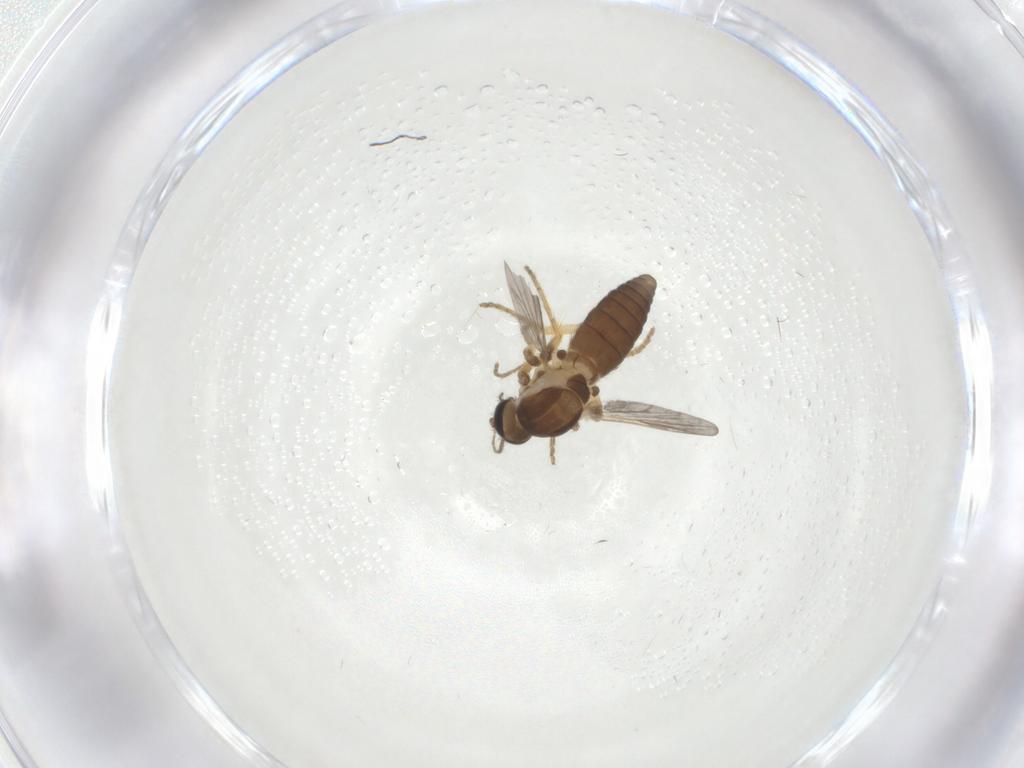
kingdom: Animalia
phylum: Arthropoda
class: Insecta
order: Diptera
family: Ceratopogonidae
